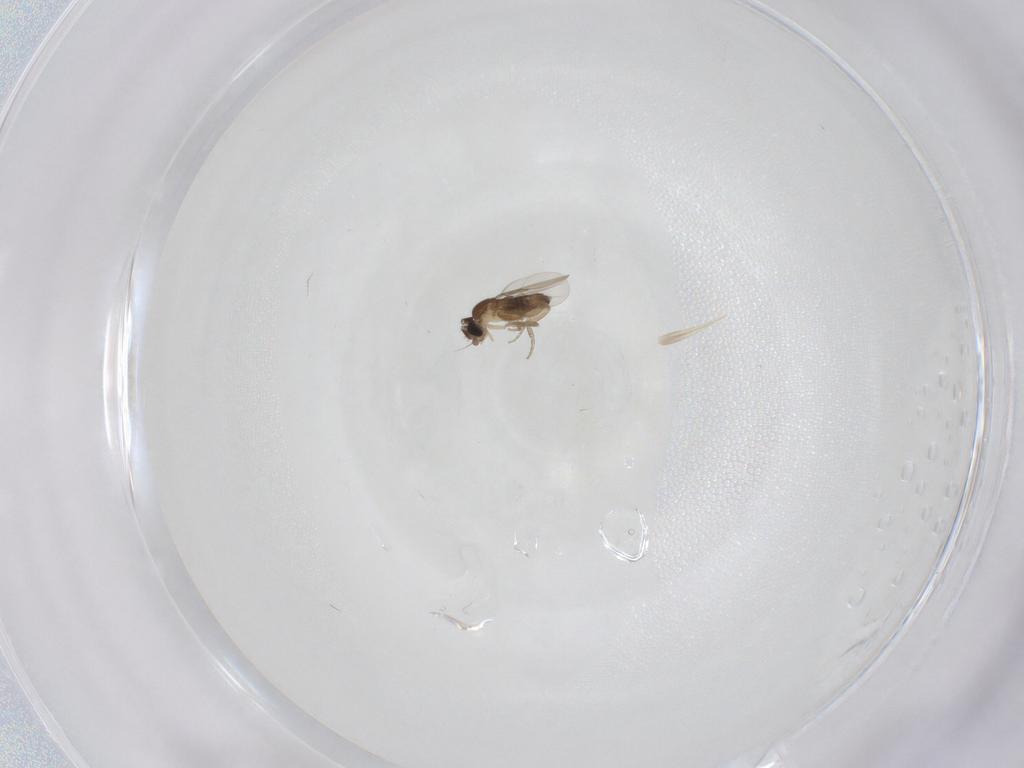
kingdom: Animalia
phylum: Arthropoda
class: Insecta
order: Diptera
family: Phoridae
